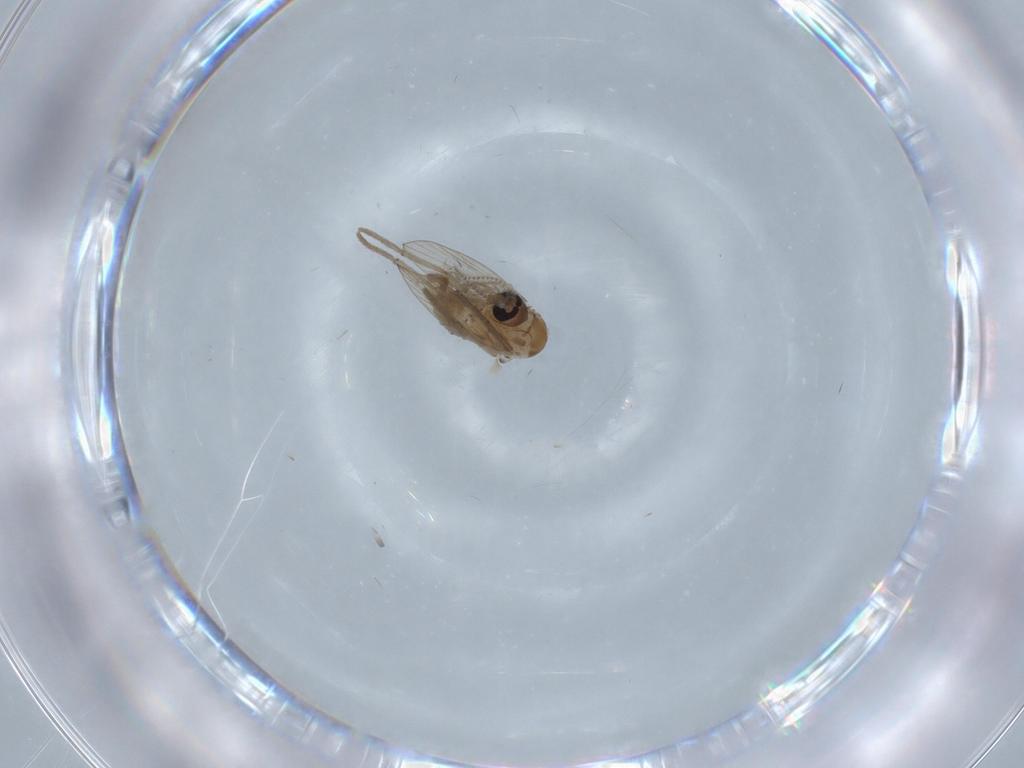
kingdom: Animalia
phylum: Arthropoda
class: Insecta
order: Diptera
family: Psychodidae
